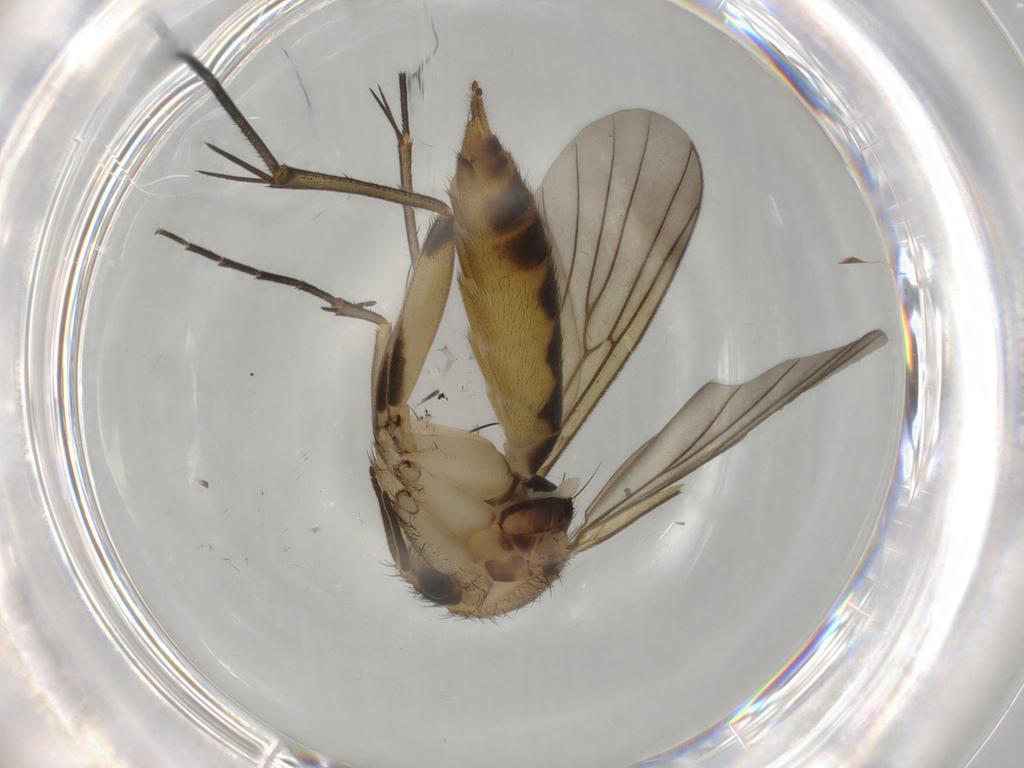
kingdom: Animalia
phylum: Arthropoda
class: Insecta
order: Diptera
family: Mycetophilidae
